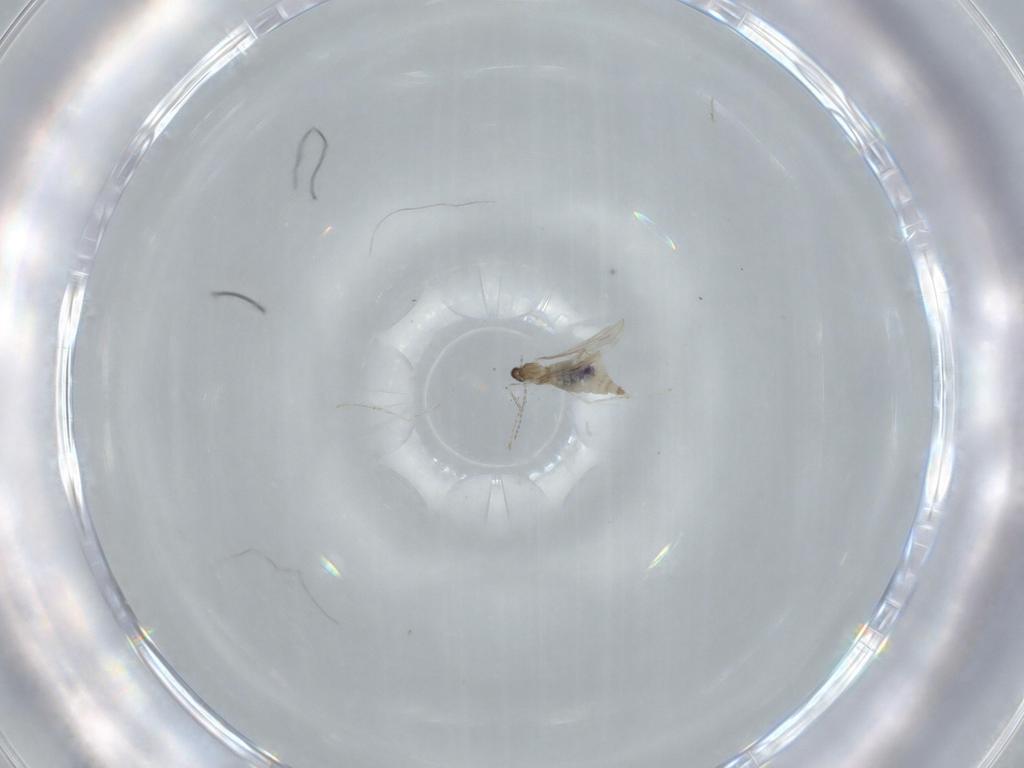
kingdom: Animalia
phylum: Arthropoda
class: Insecta
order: Diptera
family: Cecidomyiidae
